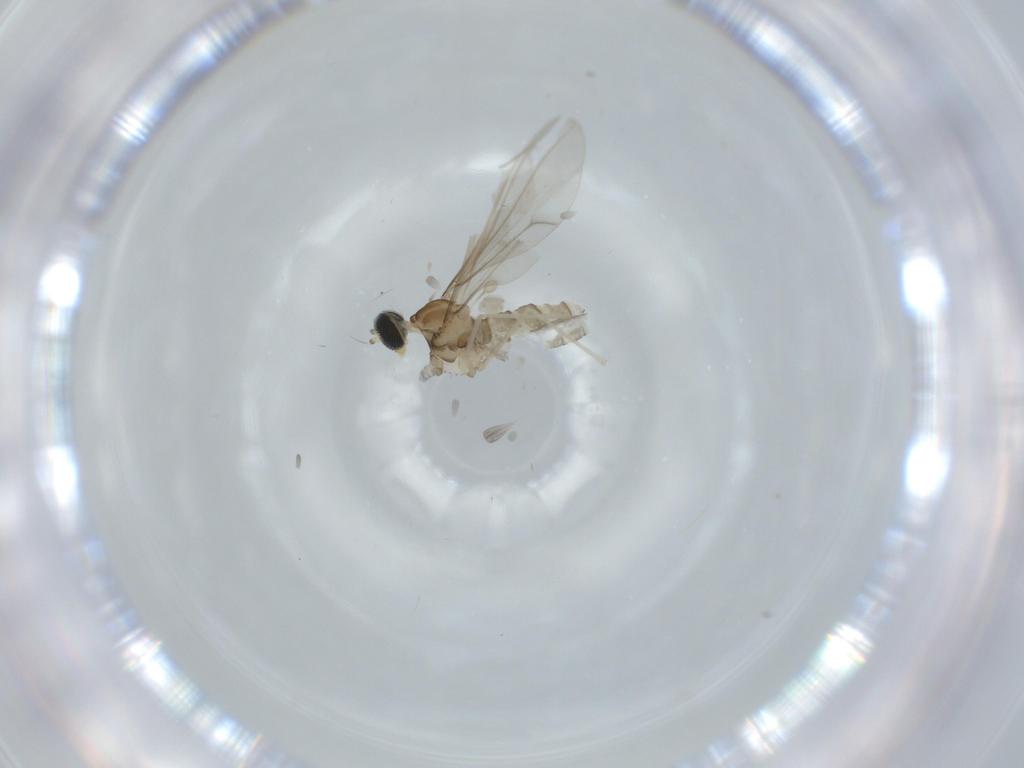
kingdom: Animalia
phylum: Arthropoda
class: Insecta
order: Diptera
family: Cecidomyiidae
